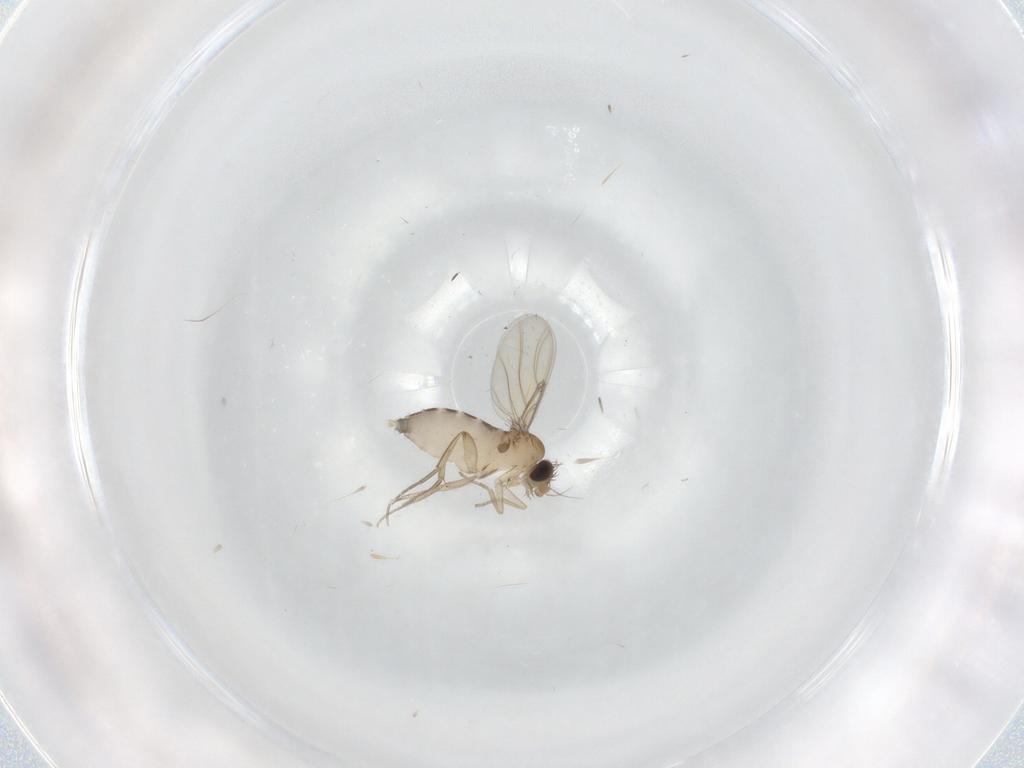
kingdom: Animalia
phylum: Arthropoda
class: Insecta
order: Diptera
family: Phoridae
